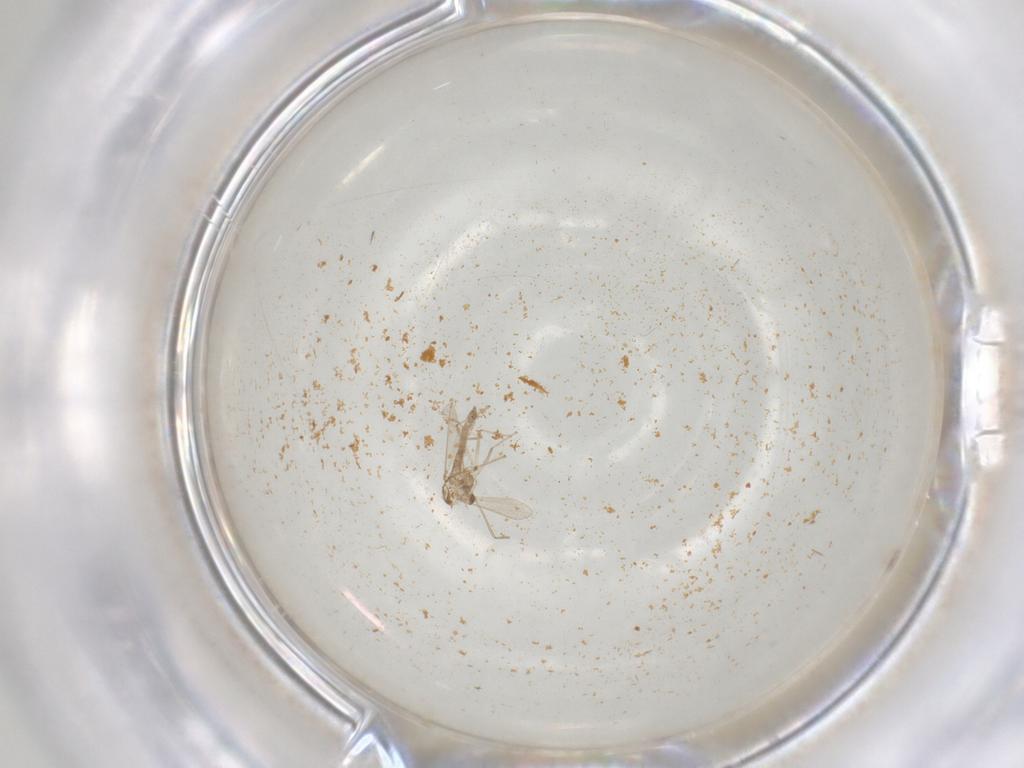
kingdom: Animalia
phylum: Arthropoda
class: Insecta
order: Diptera
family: Chironomidae
